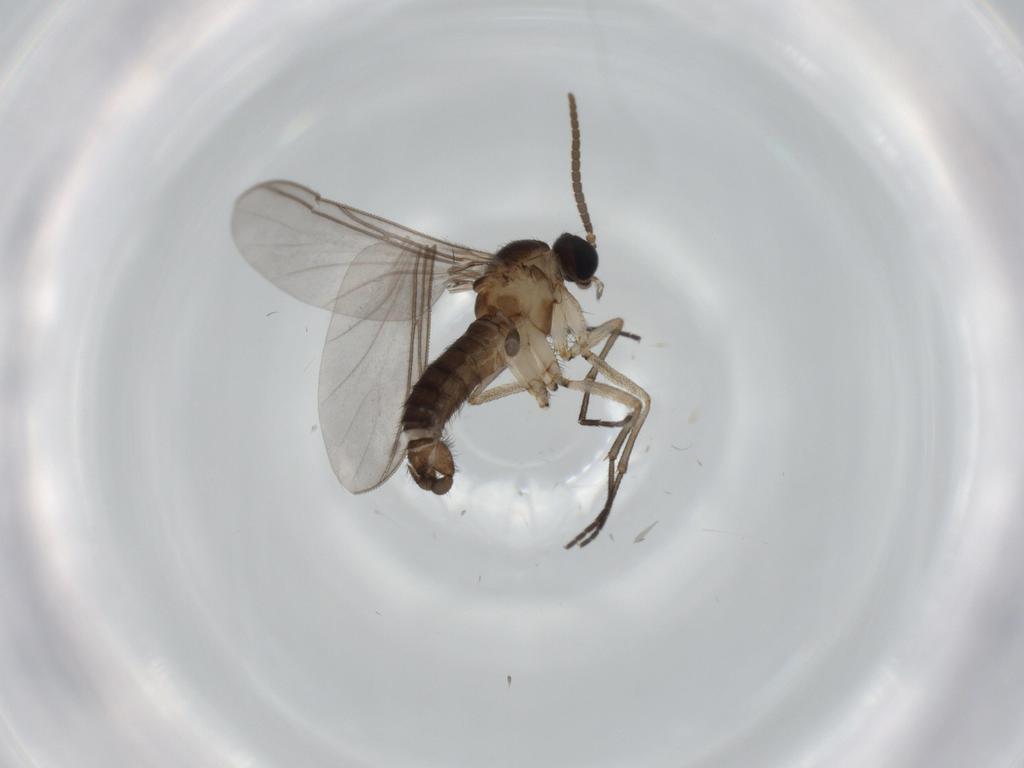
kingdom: Animalia
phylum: Arthropoda
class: Insecta
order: Diptera
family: Sciaridae
